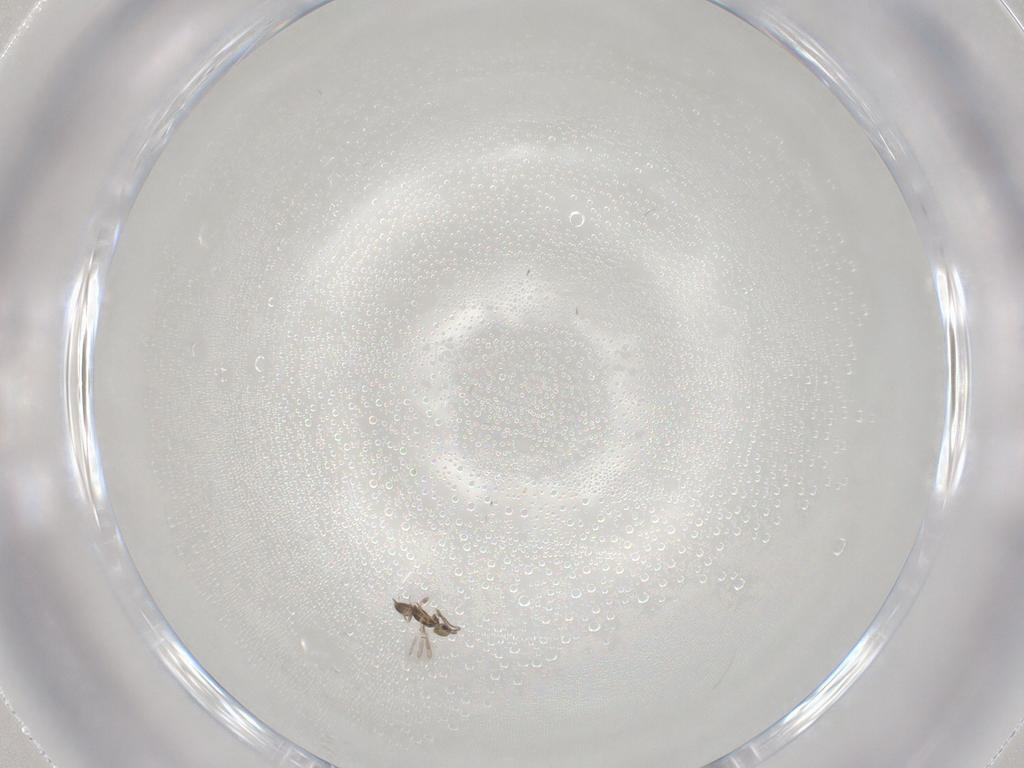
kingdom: Animalia
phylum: Arthropoda
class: Insecta
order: Hymenoptera
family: Mymaridae
